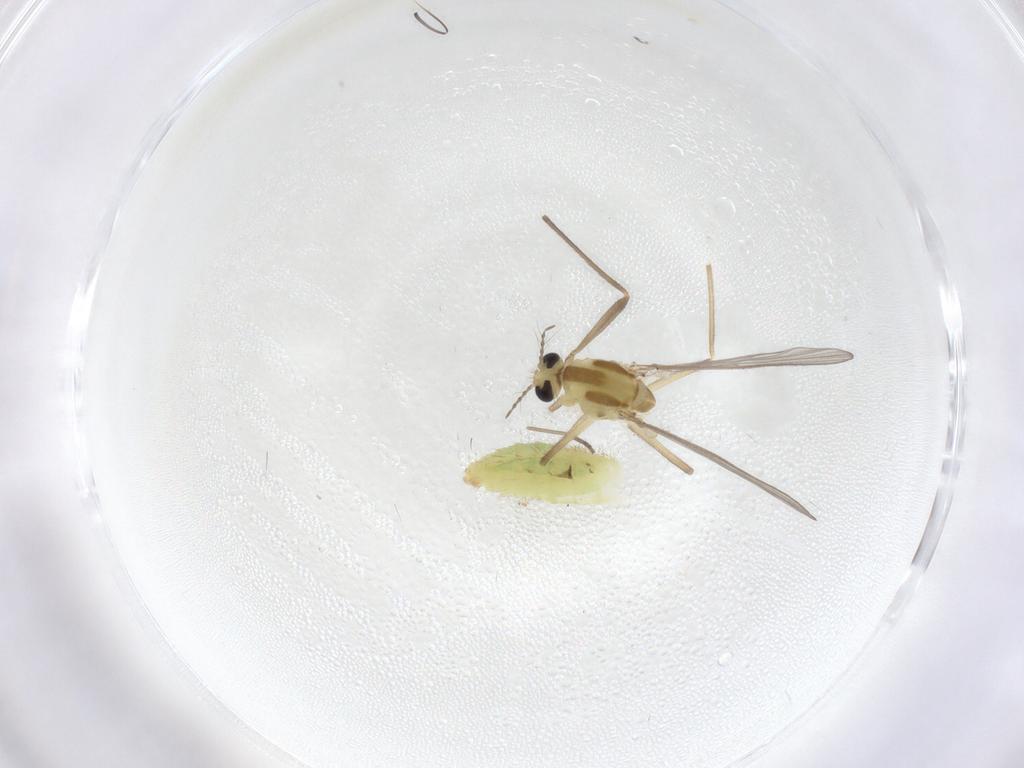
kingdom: Animalia
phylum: Arthropoda
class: Insecta
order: Diptera
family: Chironomidae
